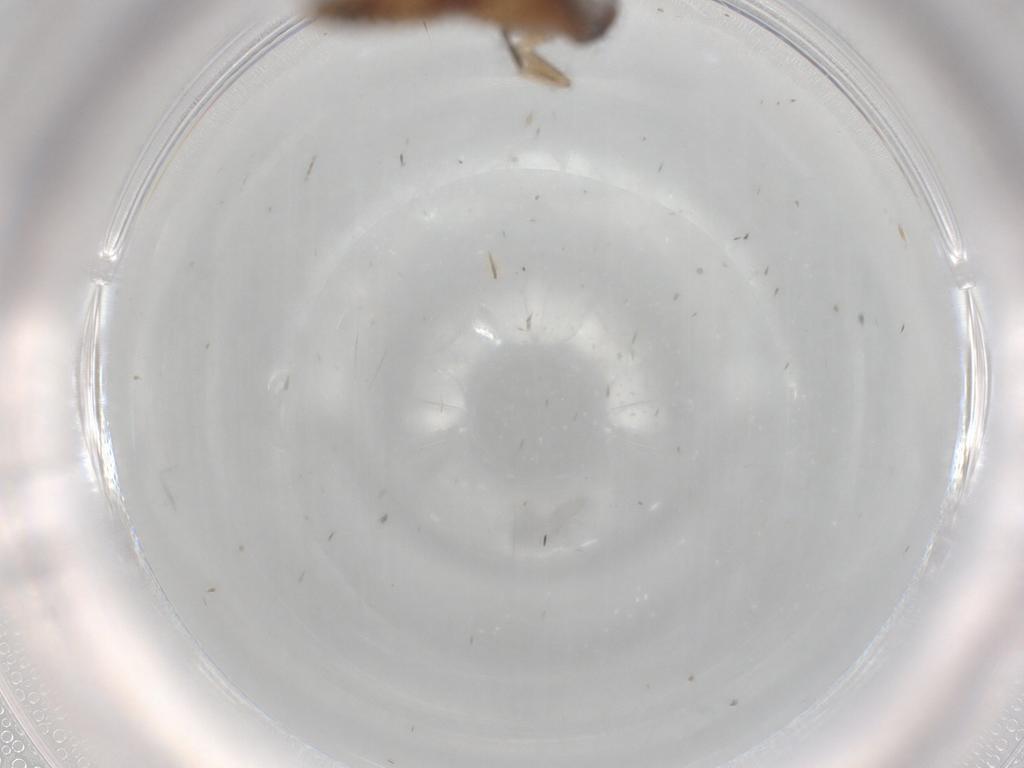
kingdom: Animalia
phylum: Arthropoda
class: Insecta
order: Lepidoptera
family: Cosmopterigidae
